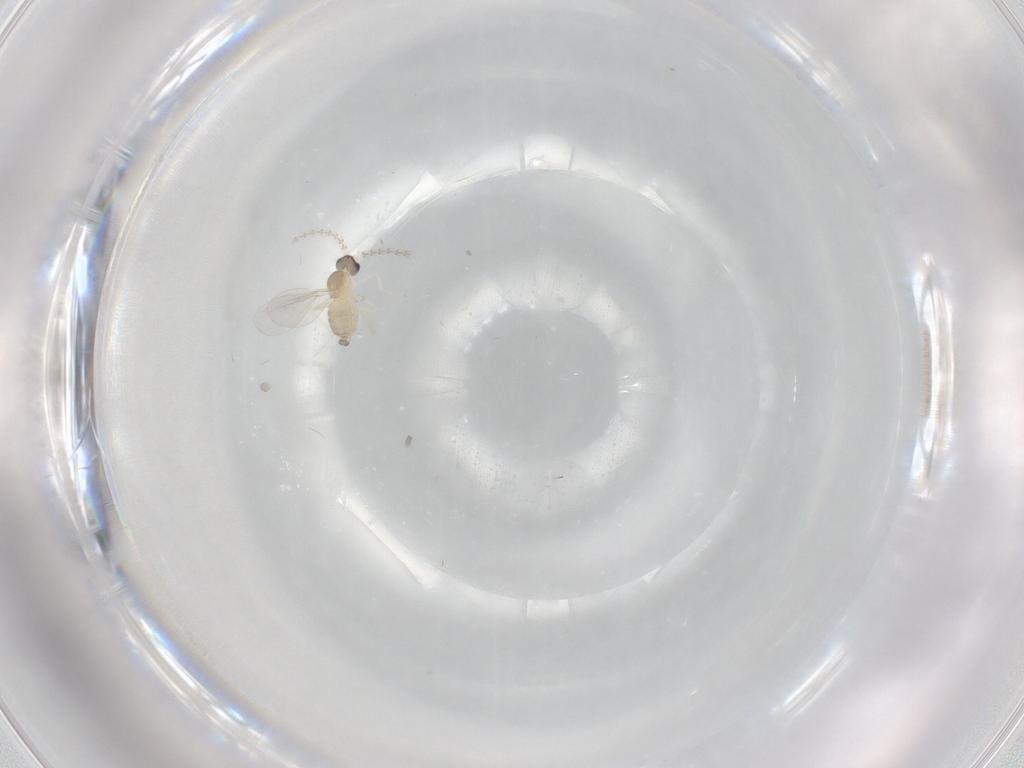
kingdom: Animalia
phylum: Arthropoda
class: Insecta
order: Diptera
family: Cecidomyiidae
